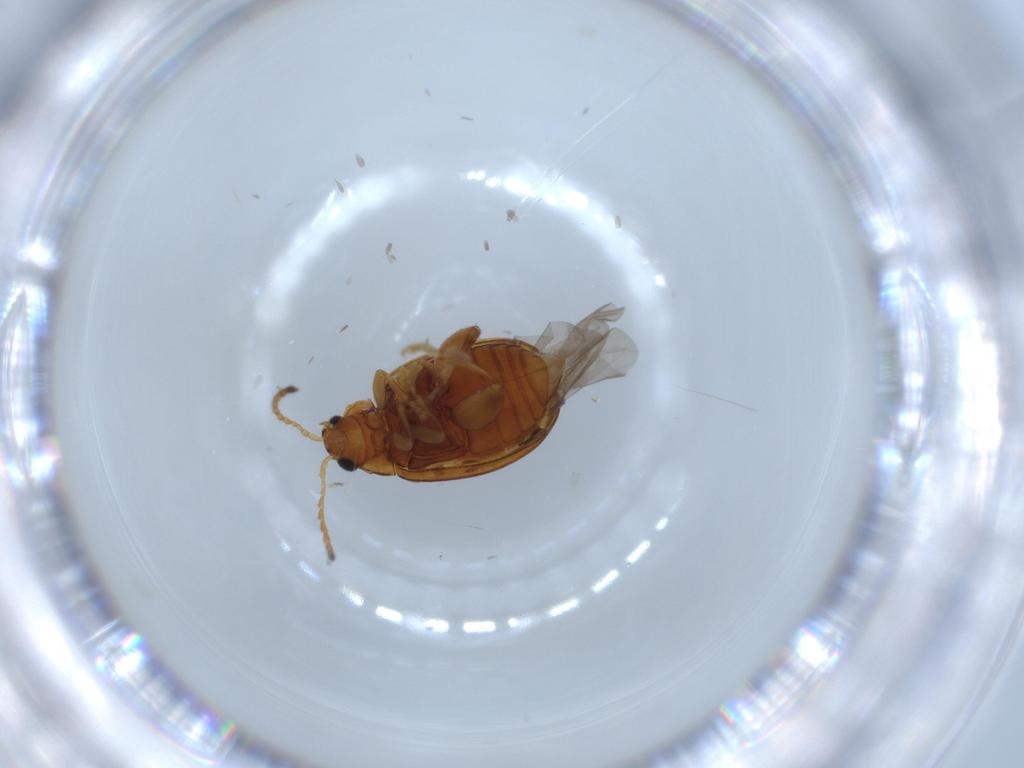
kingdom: Animalia
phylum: Arthropoda
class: Insecta
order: Coleoptera
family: Chrysomelidae
